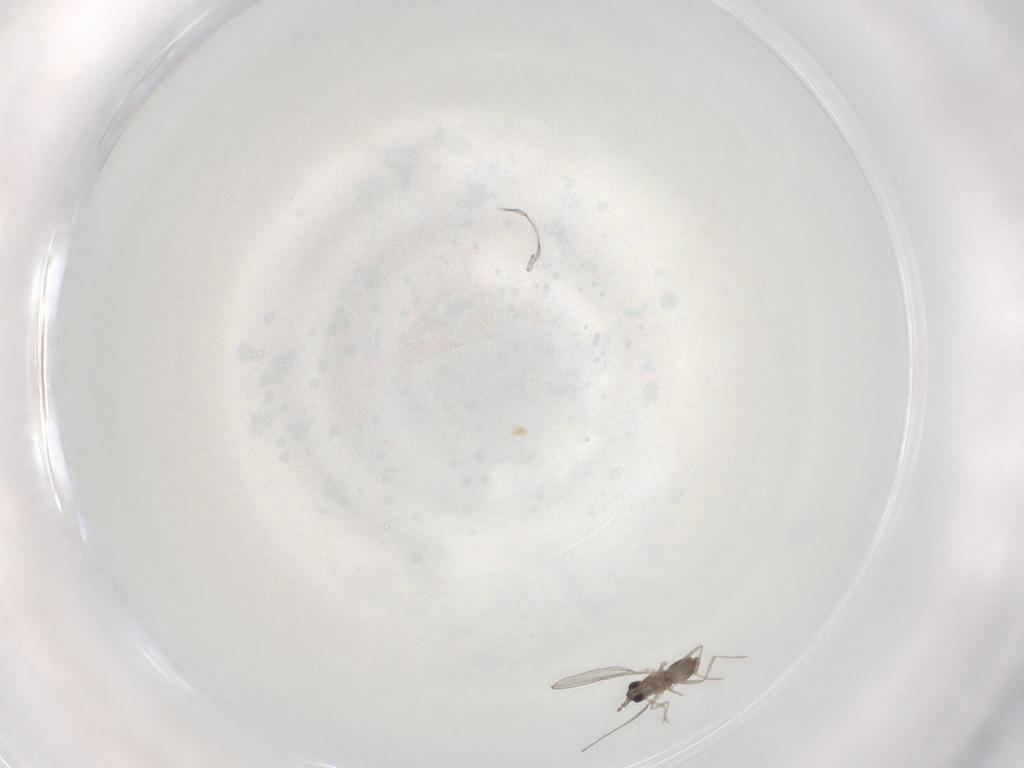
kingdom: Animalia
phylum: Arthropoda
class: Insecta
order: Diptera
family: Cecidomyiidae
